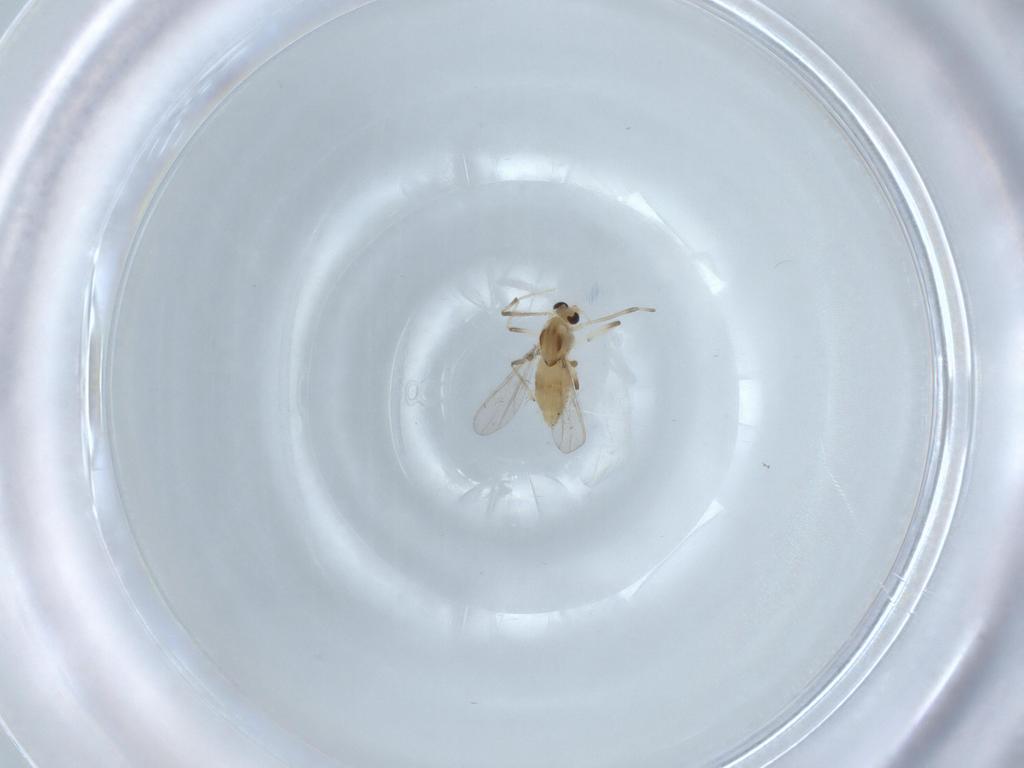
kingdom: Animalia
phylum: Arthropoda
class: Insecta
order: Diptera
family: Chironomidae
